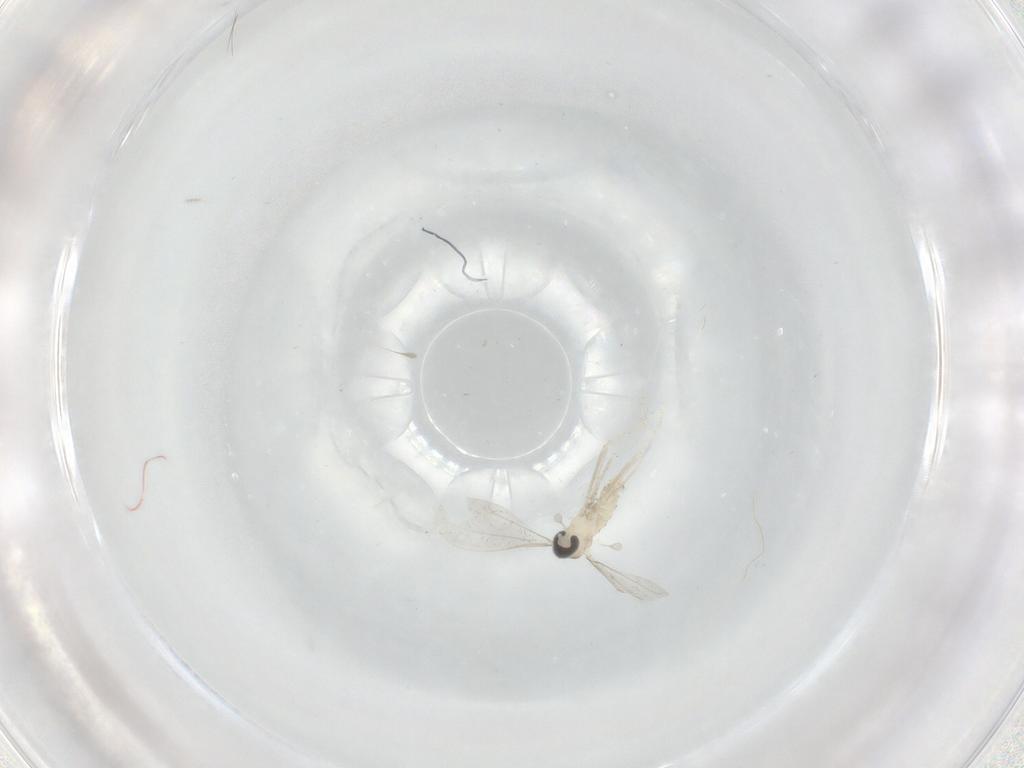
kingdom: Animalia
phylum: Arthropoda
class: Insecta
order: Diptera
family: Cecidomyiidae
